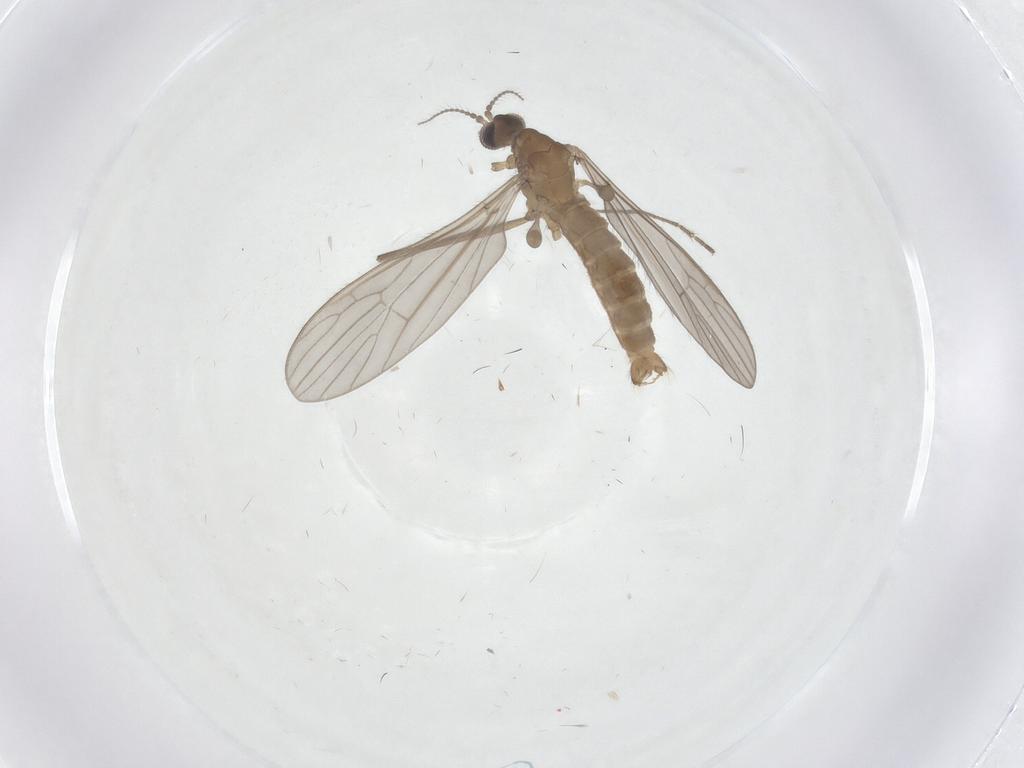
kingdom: Animalia
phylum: Arthropoda
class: Insecta
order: Diptera
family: Limoniidae
